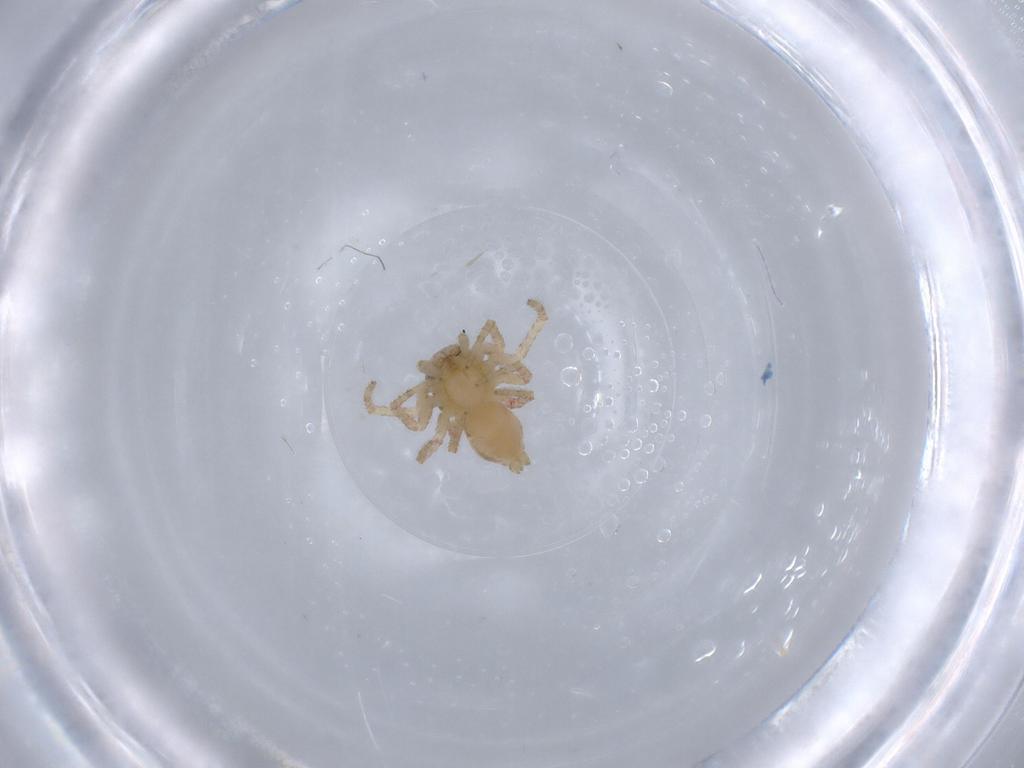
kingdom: Animalia
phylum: Arthropoda
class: Arachnida
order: Araneae
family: Thomisidae
